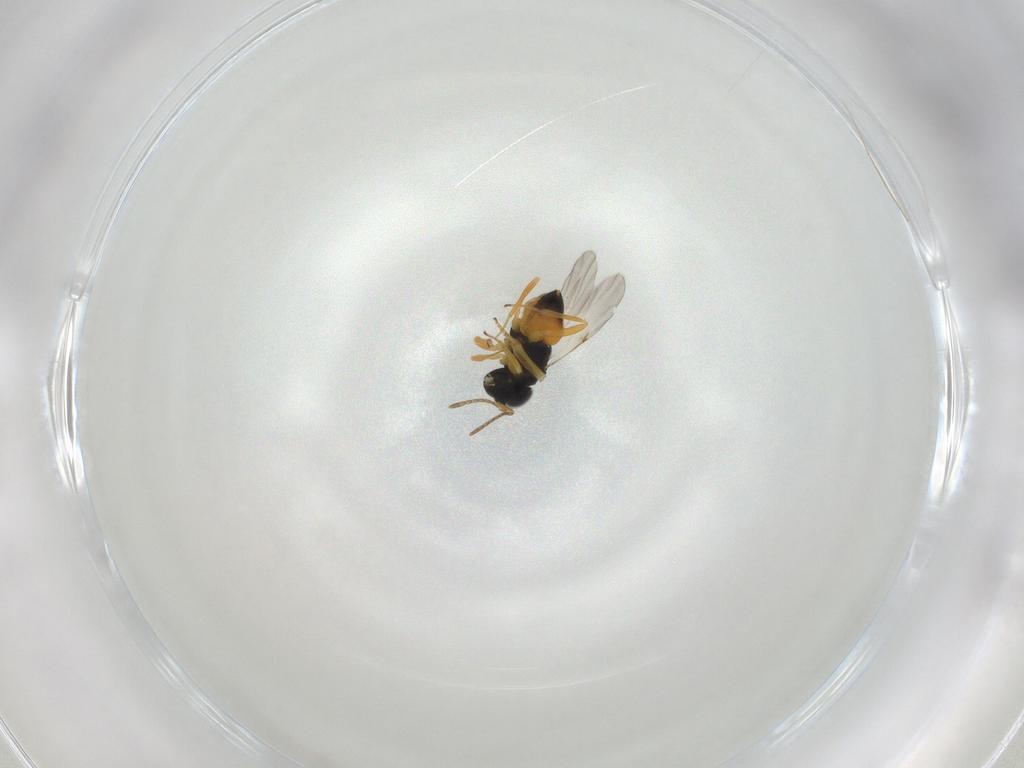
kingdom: Animalia
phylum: Arthropoda
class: Insecta
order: Hymenoptera
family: Encyrtidae
